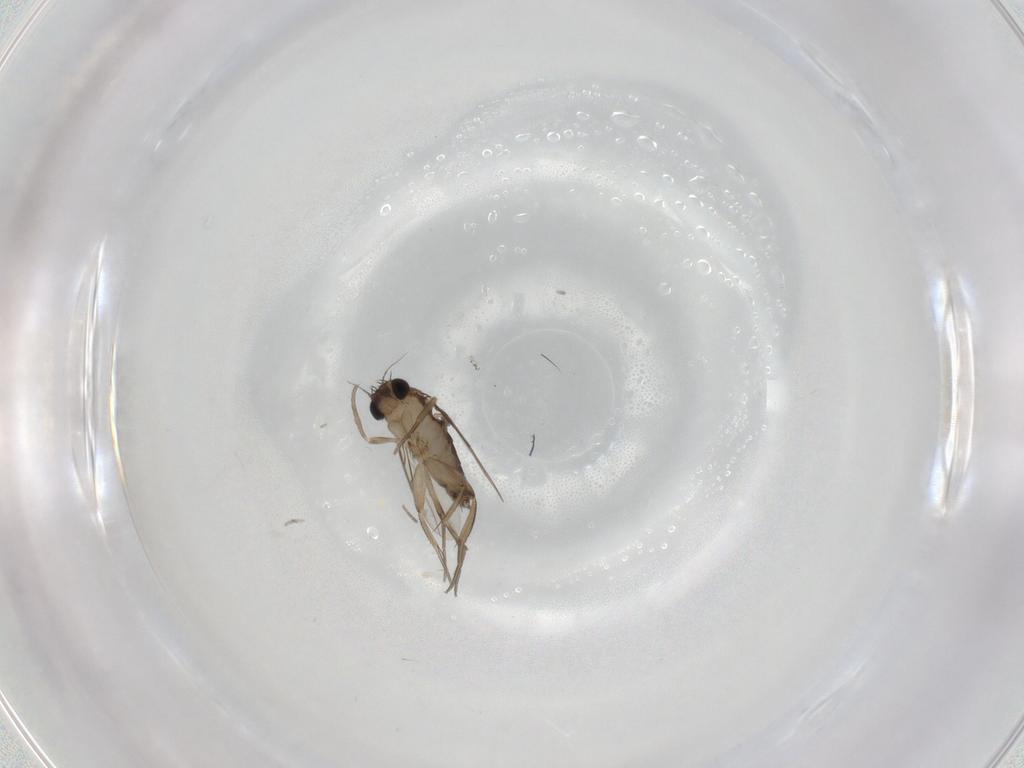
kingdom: Animalia
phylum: Arthropoda
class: Insecta
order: Diptera
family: Phoridae
